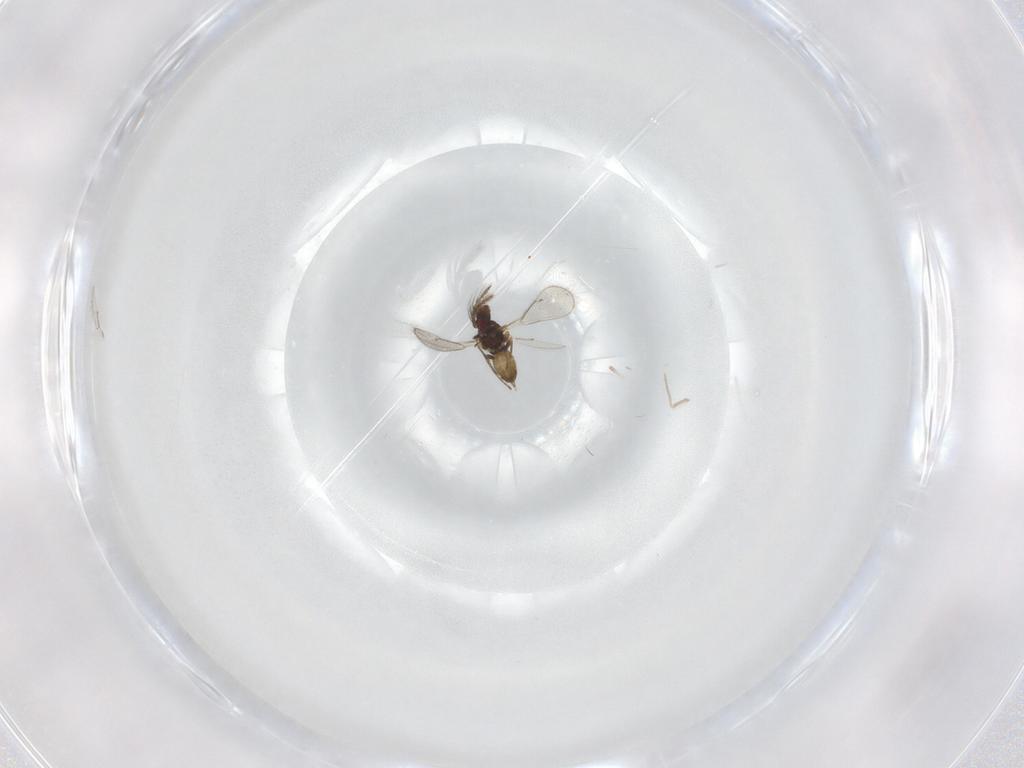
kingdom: Animalia
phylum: Arthropoda
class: Insecta
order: Hymenoptera
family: Eulophidae
